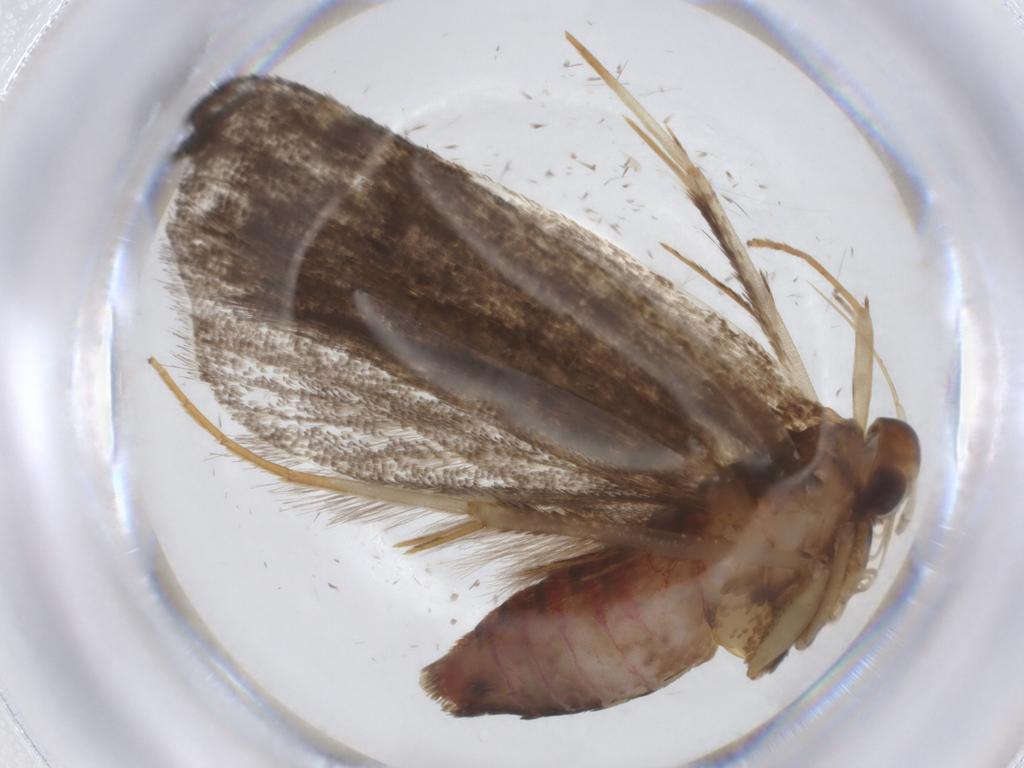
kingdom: Animalia
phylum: Arthropoda
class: Insecta
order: Lepidoptera
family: Lecithoceridae
